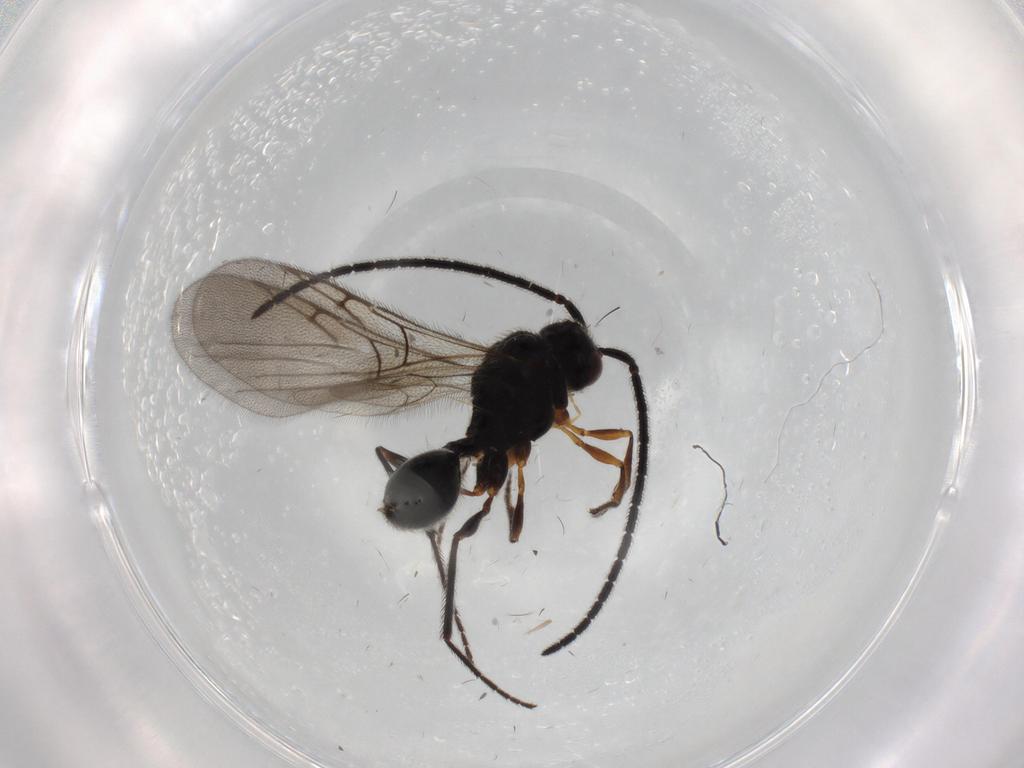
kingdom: Animalia
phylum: Arthropoda
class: Insecta
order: Hymenoptera
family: Diapriidae
